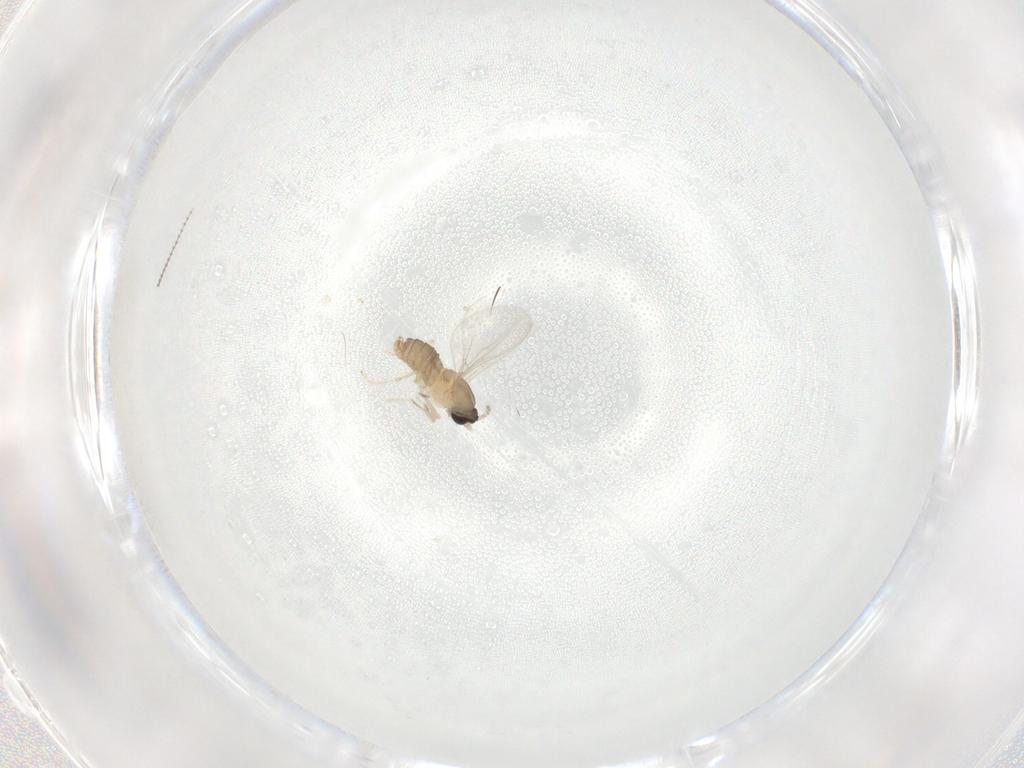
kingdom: Animalia
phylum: Arthropoda
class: Insecta
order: Diptera
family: Cecidomyiidae
